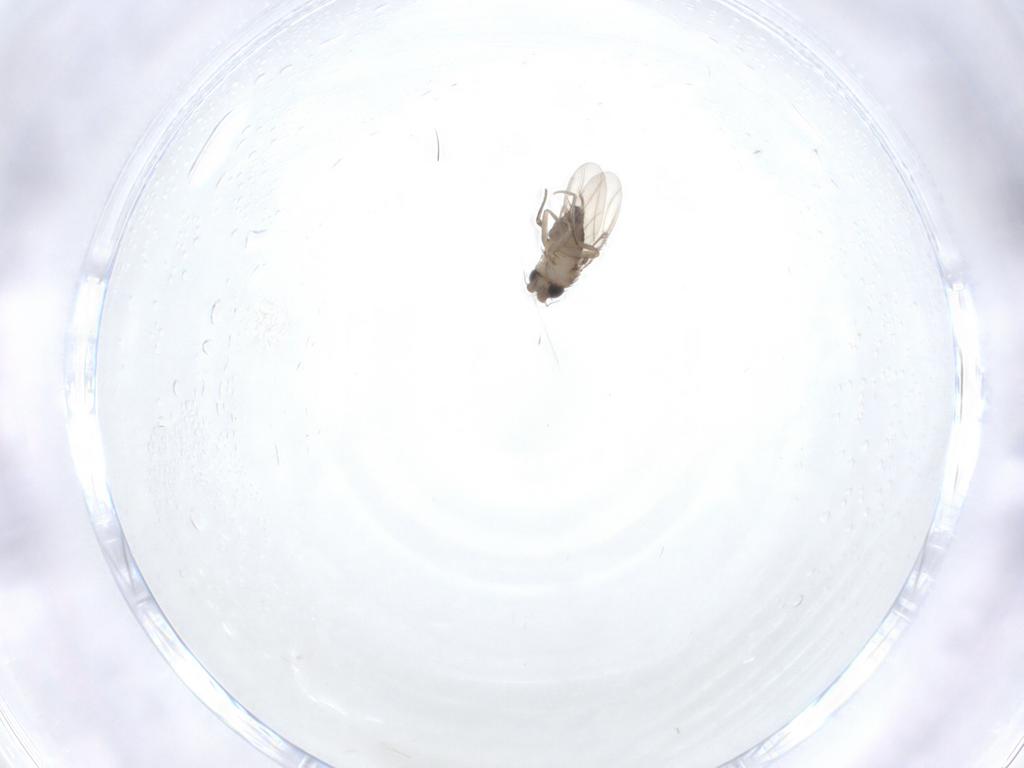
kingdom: Animalia
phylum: Arthropoda
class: Insecta
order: Diptera
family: Phoridae
